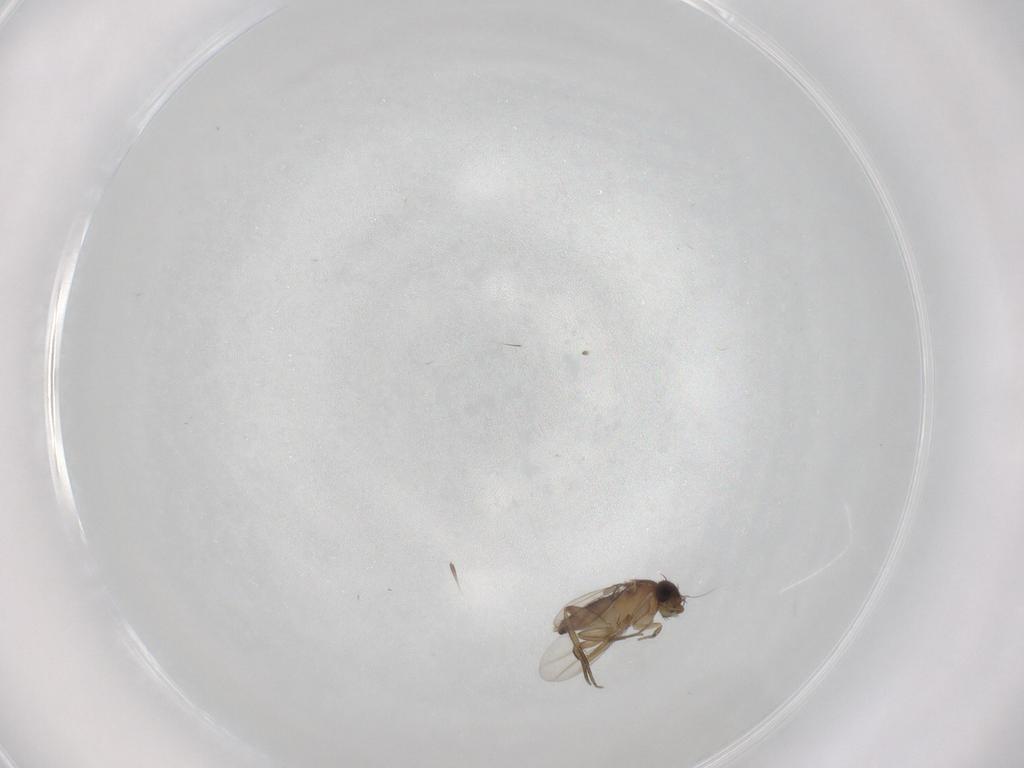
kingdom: Animalia
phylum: Arthropoda
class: Insecta
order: Diptera
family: Phoridae
